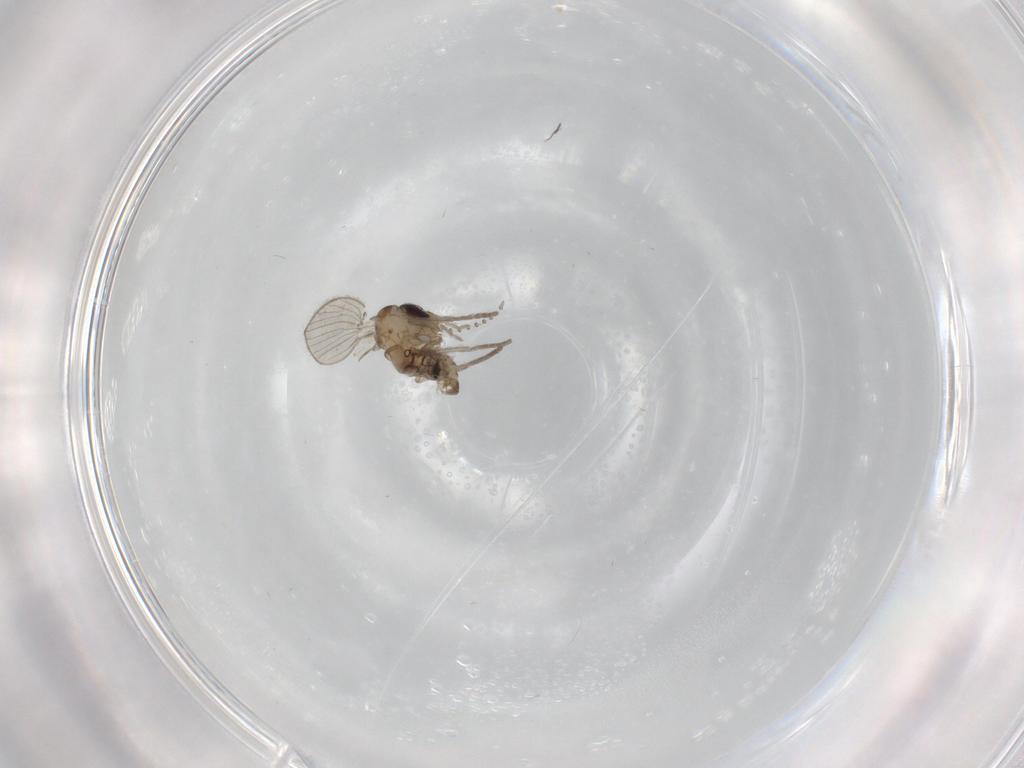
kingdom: Animalia
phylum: Arthropoda
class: Insecta
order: Diptera
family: Psychodidae
